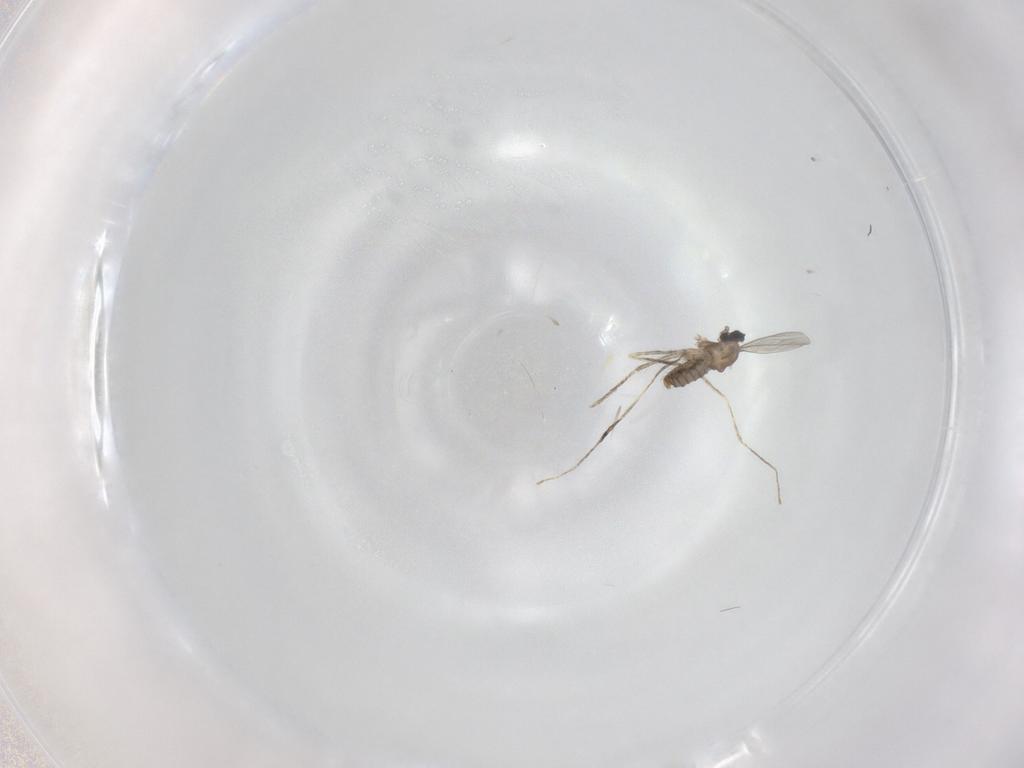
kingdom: Animalia
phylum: Arthropoda
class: Insecta
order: Diptera
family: Cecidomyiidae
